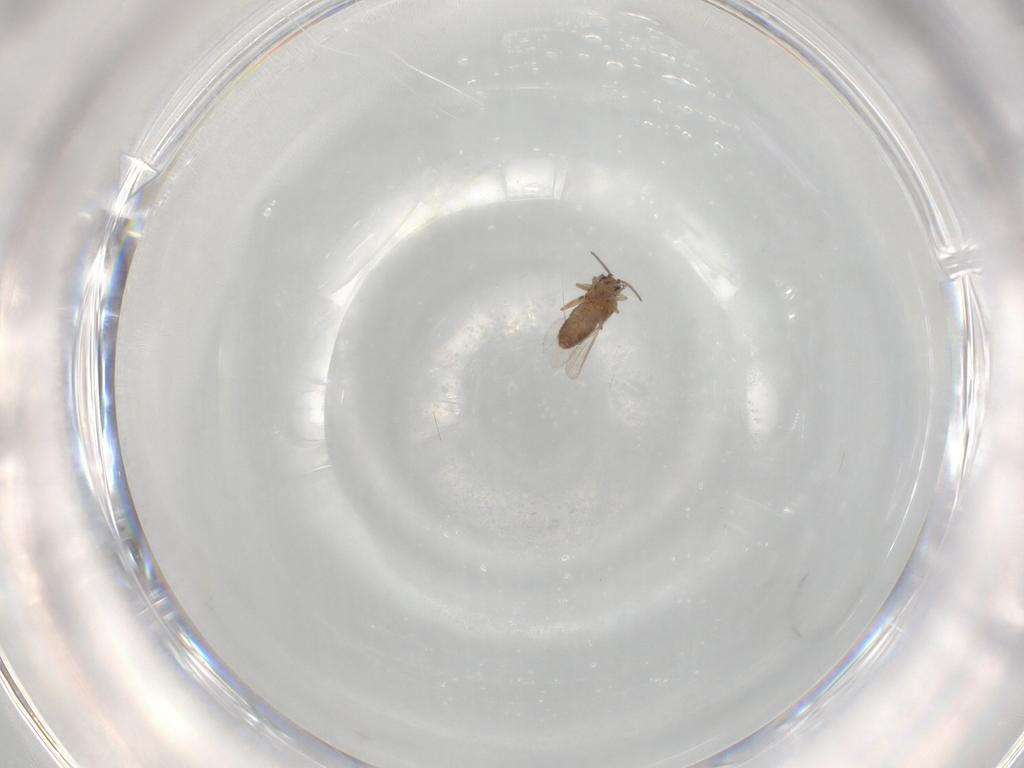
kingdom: Animalia
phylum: Arthropoda
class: Insecta
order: Diptera
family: Ceratopogonidae
